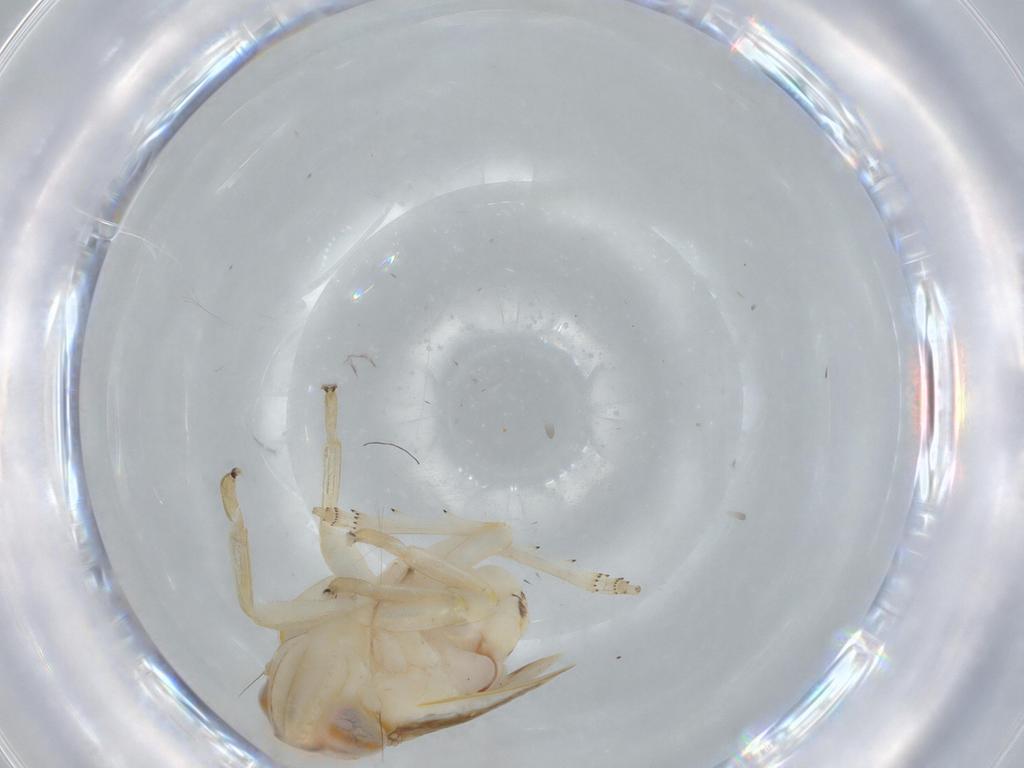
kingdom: Animalia
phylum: Arthropoda
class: Insecta
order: Hemiptera
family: Nogodinidae
